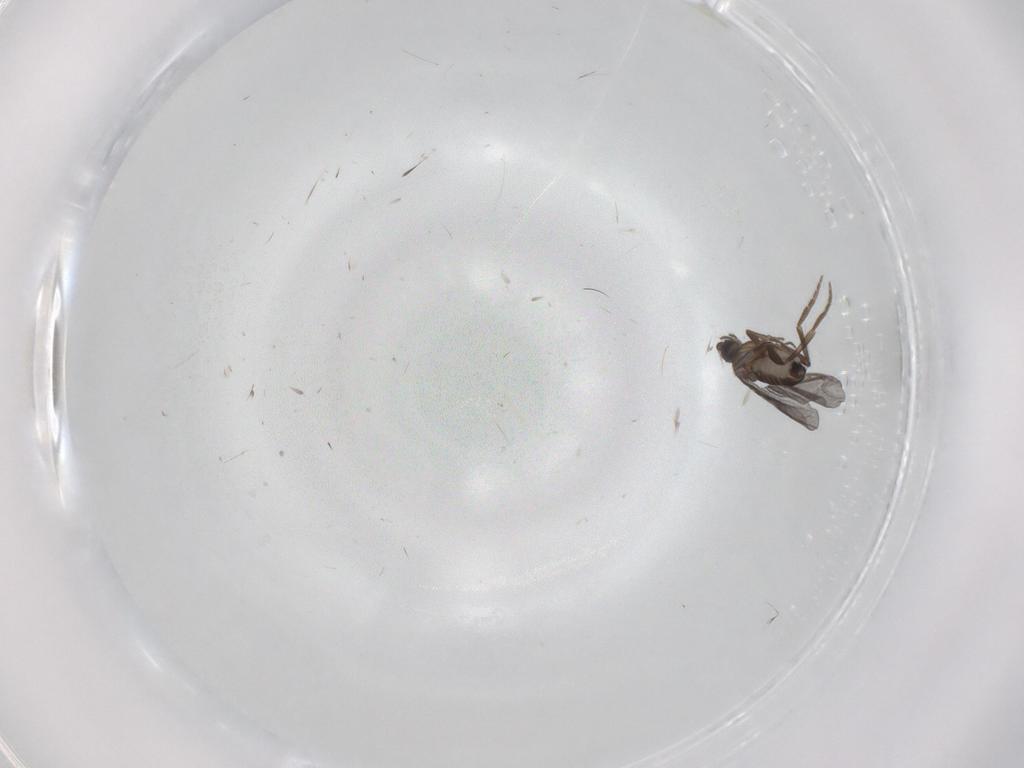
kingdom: Animalia
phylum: Arthropoda
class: Insecta
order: Diptera
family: Phoridae
